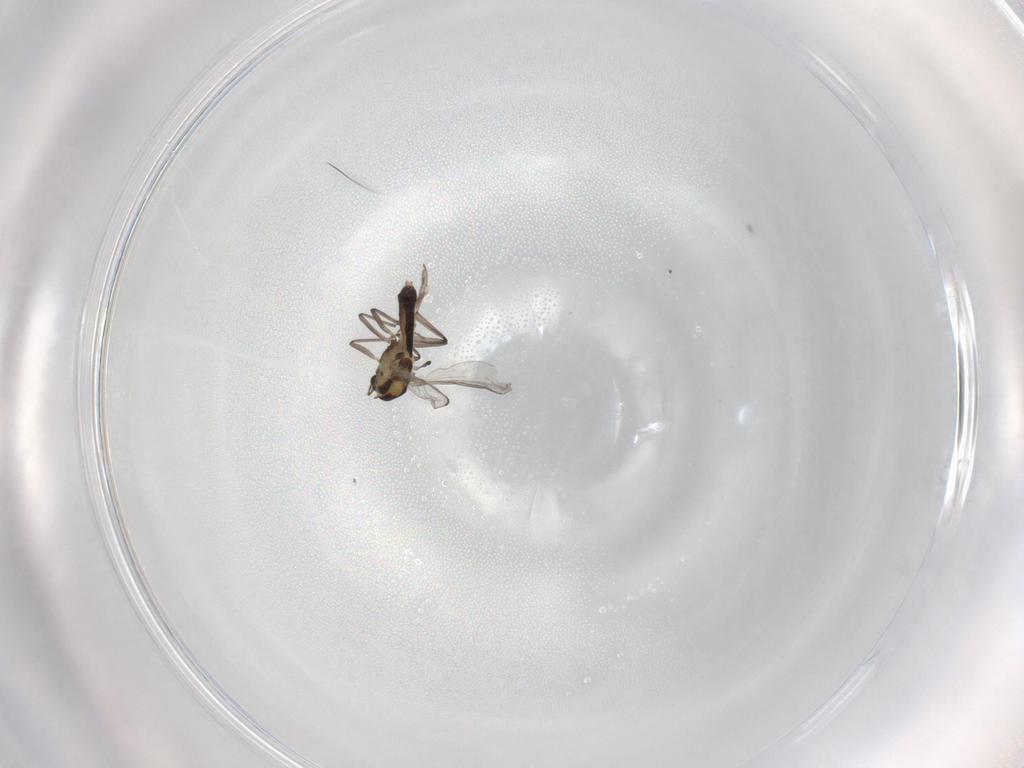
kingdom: Animalia
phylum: Arthropoda
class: Insecta
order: Diptera
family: Chironomidae
